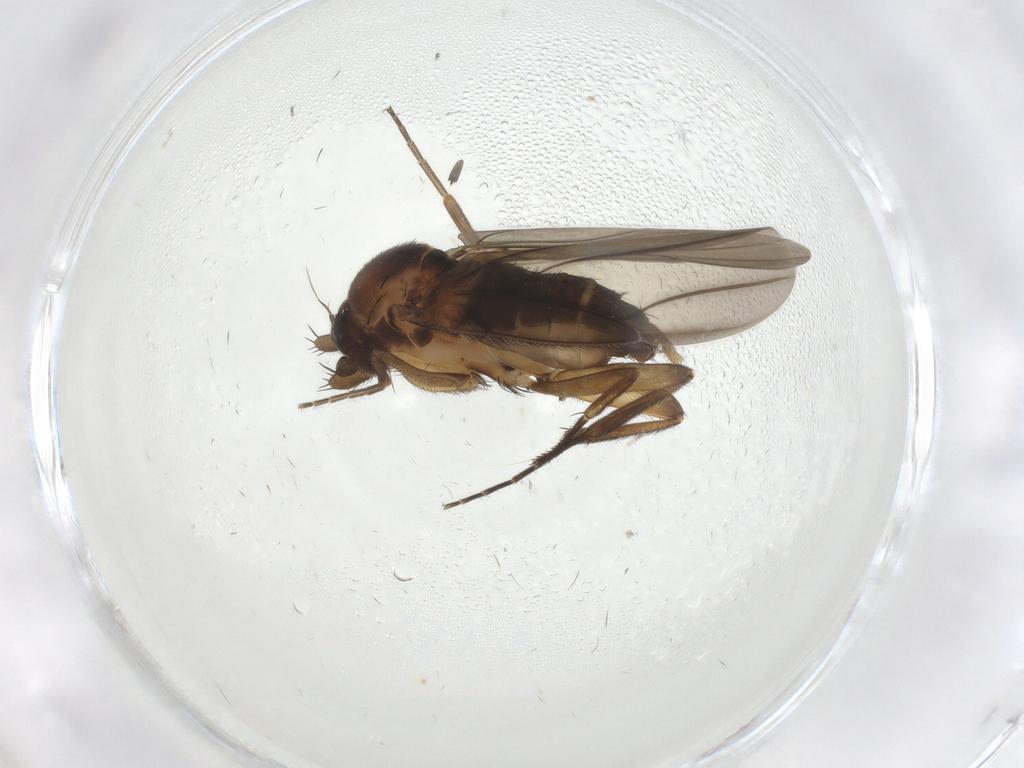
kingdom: Animalia
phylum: Arthropoda
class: Insecta
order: Diptera
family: Phoridae
